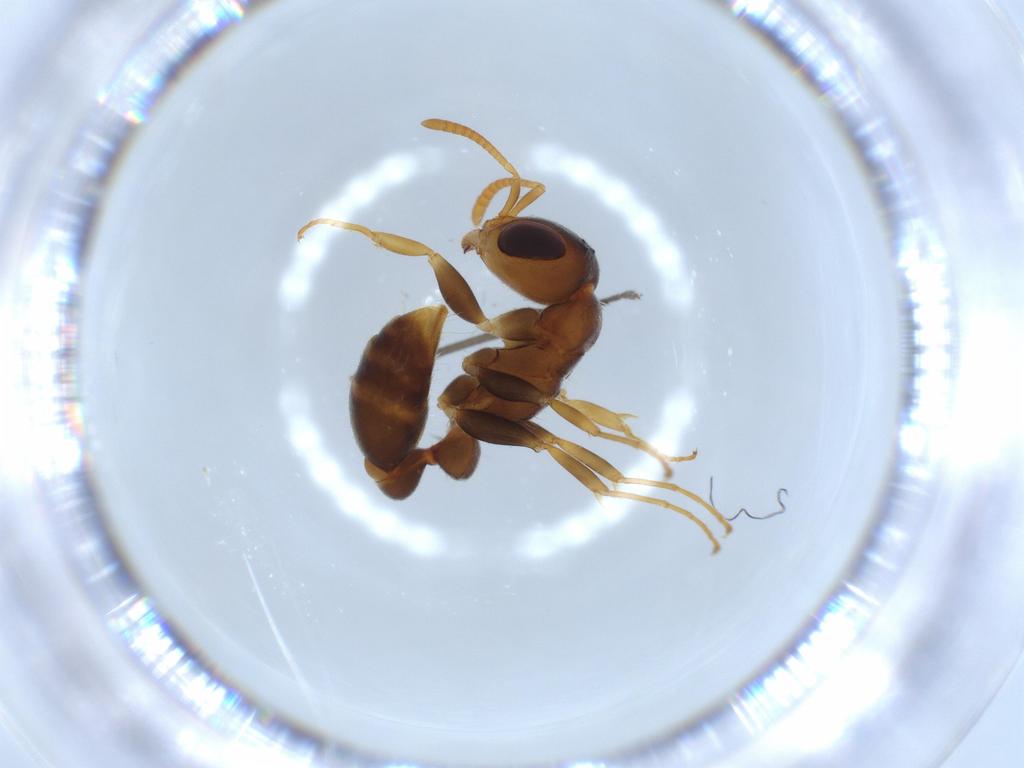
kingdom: Animalia
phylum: Arthropoda
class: Insecta
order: Hymenoptera
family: Formicidae
